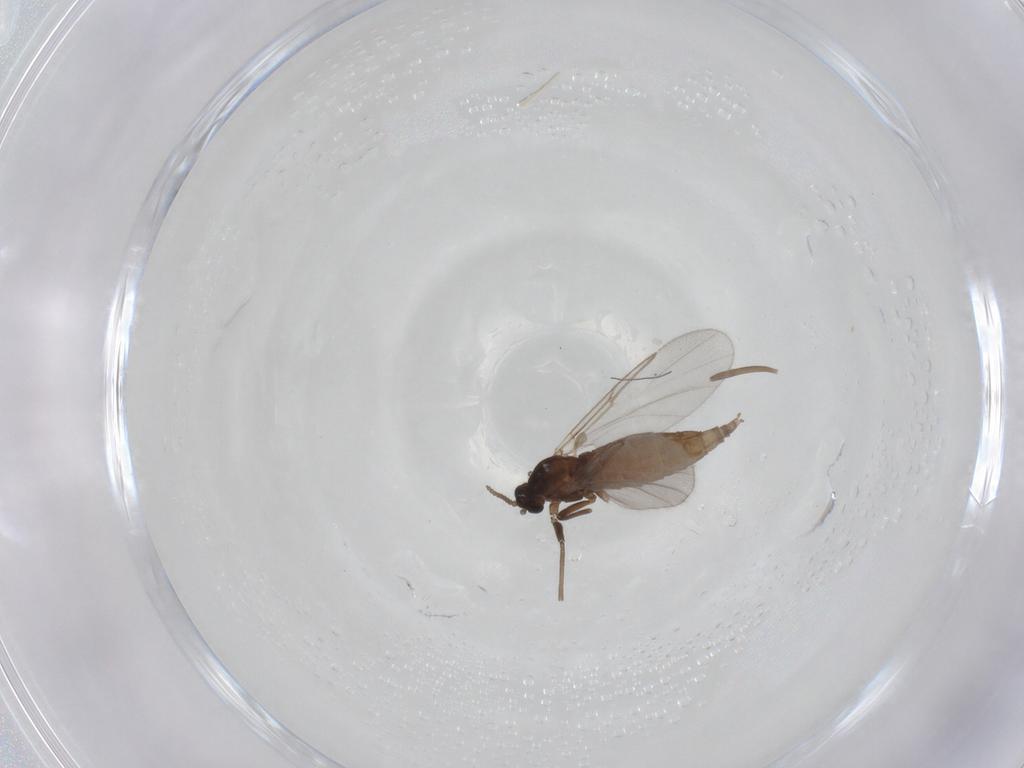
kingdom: Animalia
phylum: Arthropoda
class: Insecta
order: Diptera
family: Cecidomyiidae
